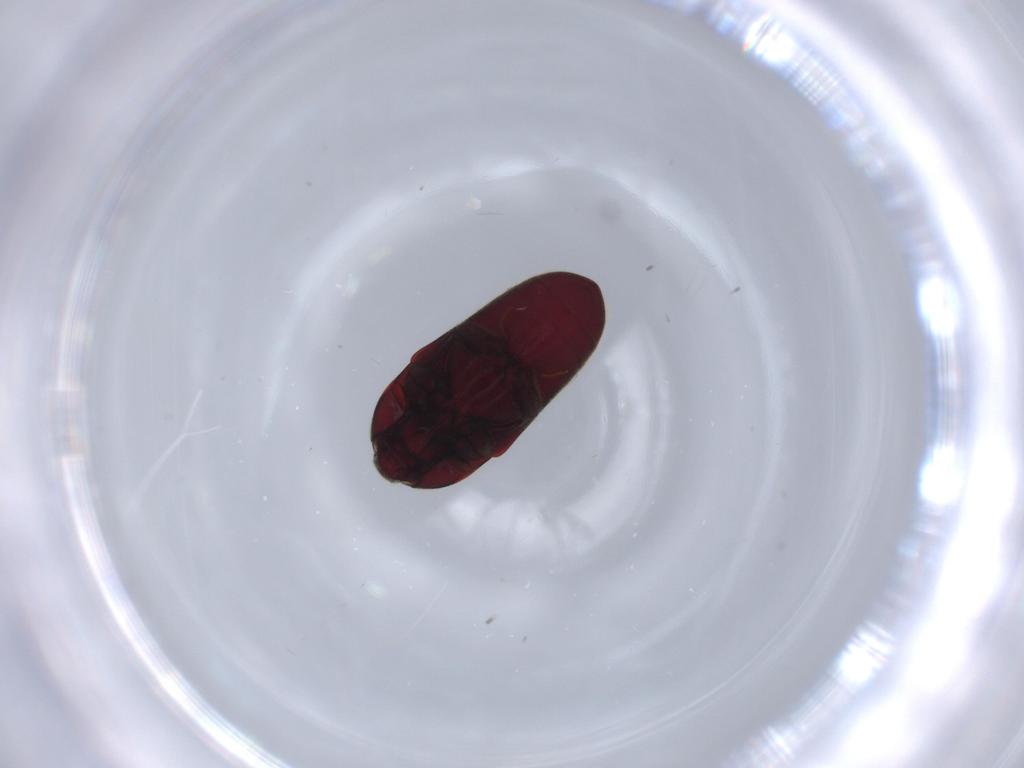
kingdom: Animalia
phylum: Arthropoda
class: Insecta
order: Coleoptera
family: Throscidae
